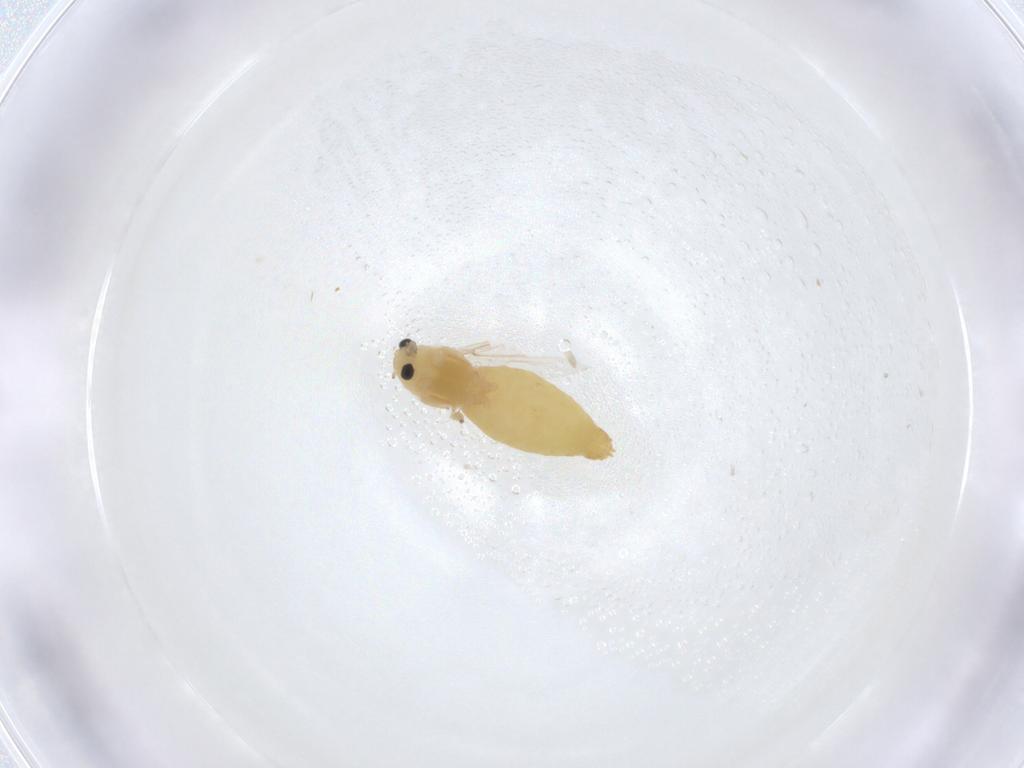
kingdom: Animalia
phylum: Arthropoda
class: Insecta
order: Diptera
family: Chironomidae
